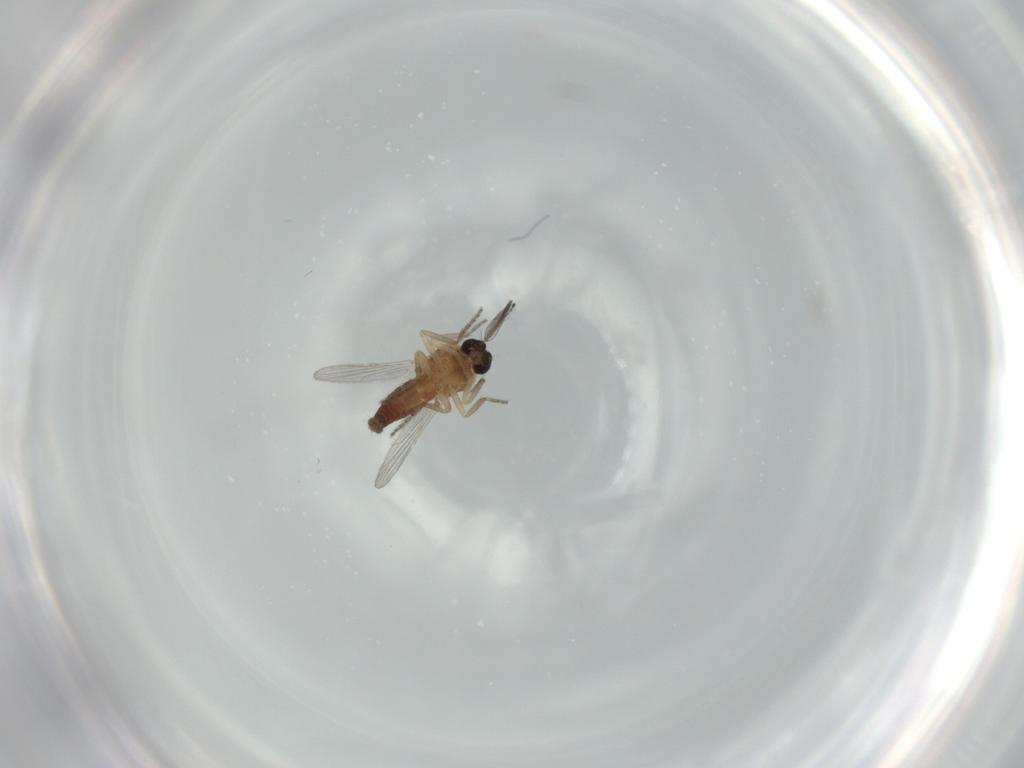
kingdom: Animalia
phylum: Arthropoda
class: Insecta
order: Diptera
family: Ceratopogonidae
